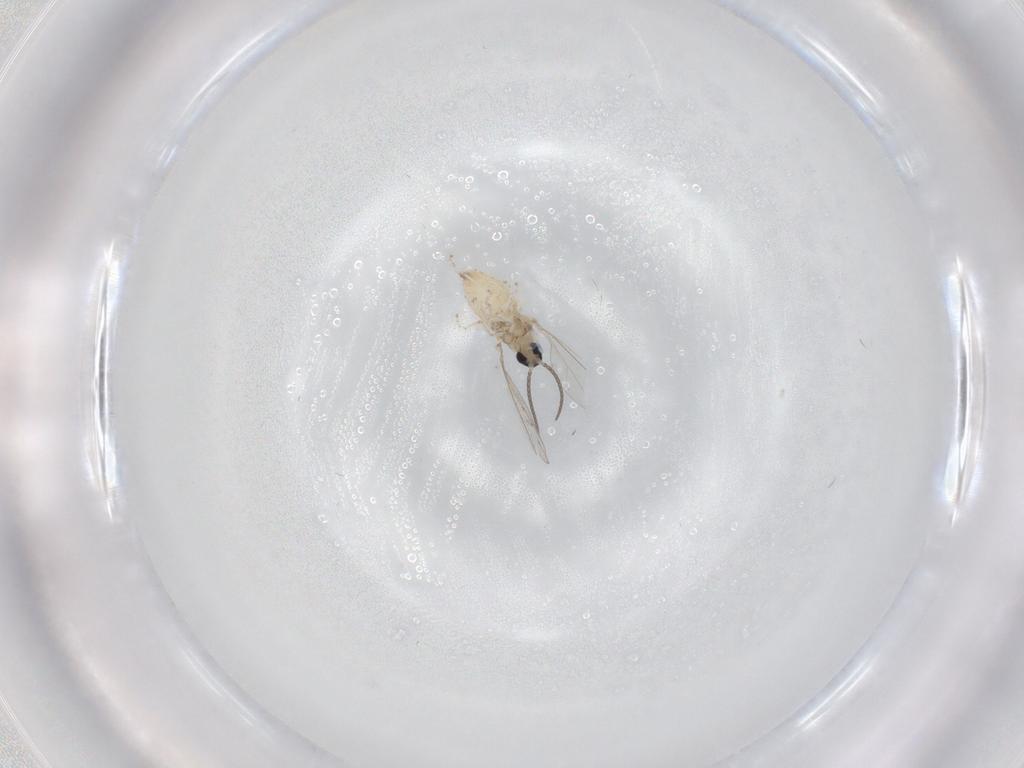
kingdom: Animalia
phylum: Arthropoda
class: Insecta
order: Diptera
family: Cecidomyiidae
